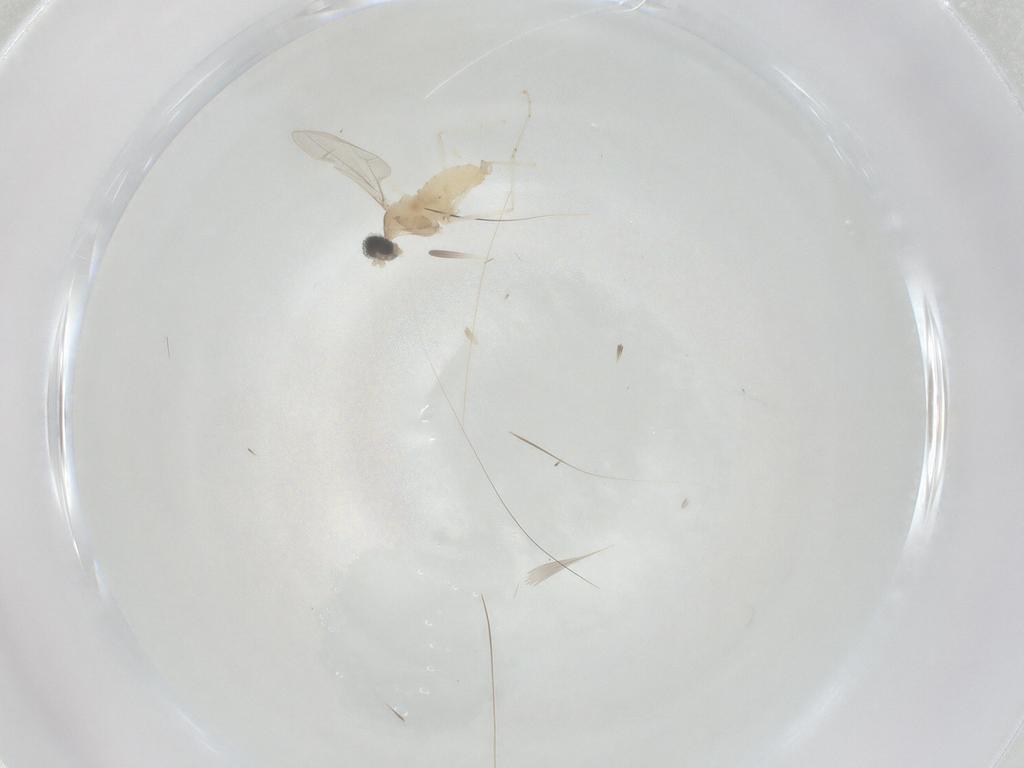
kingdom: Animalia
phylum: Arthropoda
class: Insecta
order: Diptera
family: Cecidomyiidae
